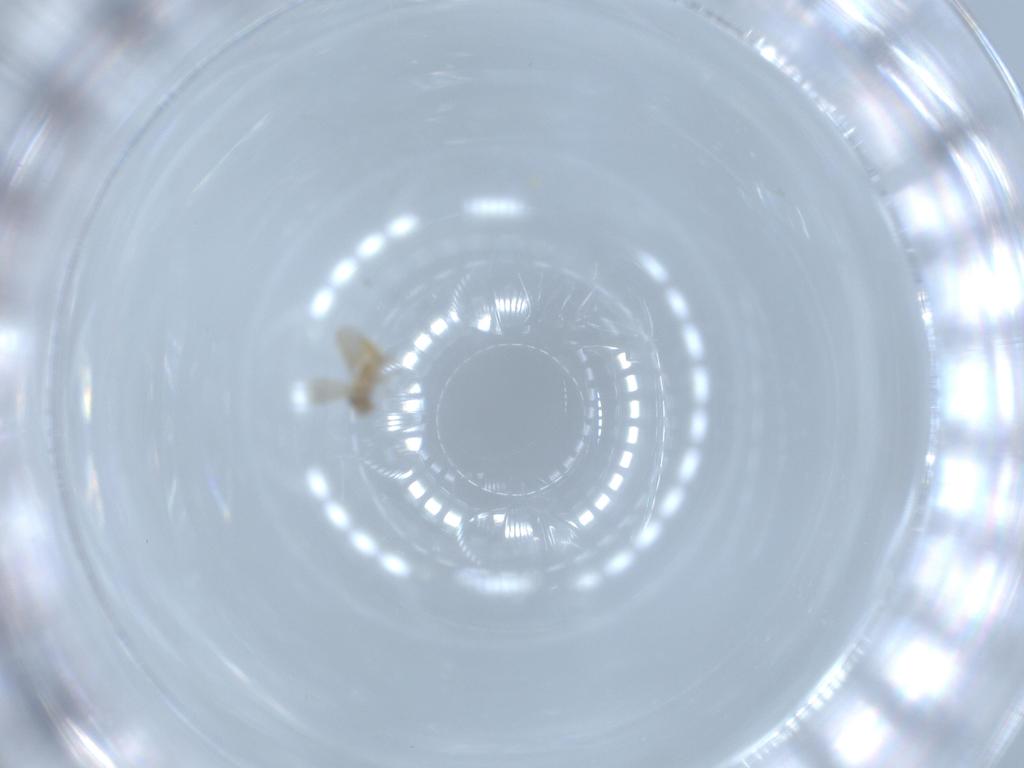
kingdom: Animalia
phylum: Arthropoda
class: Insecta
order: Hymenoptera
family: Aphelinidae
